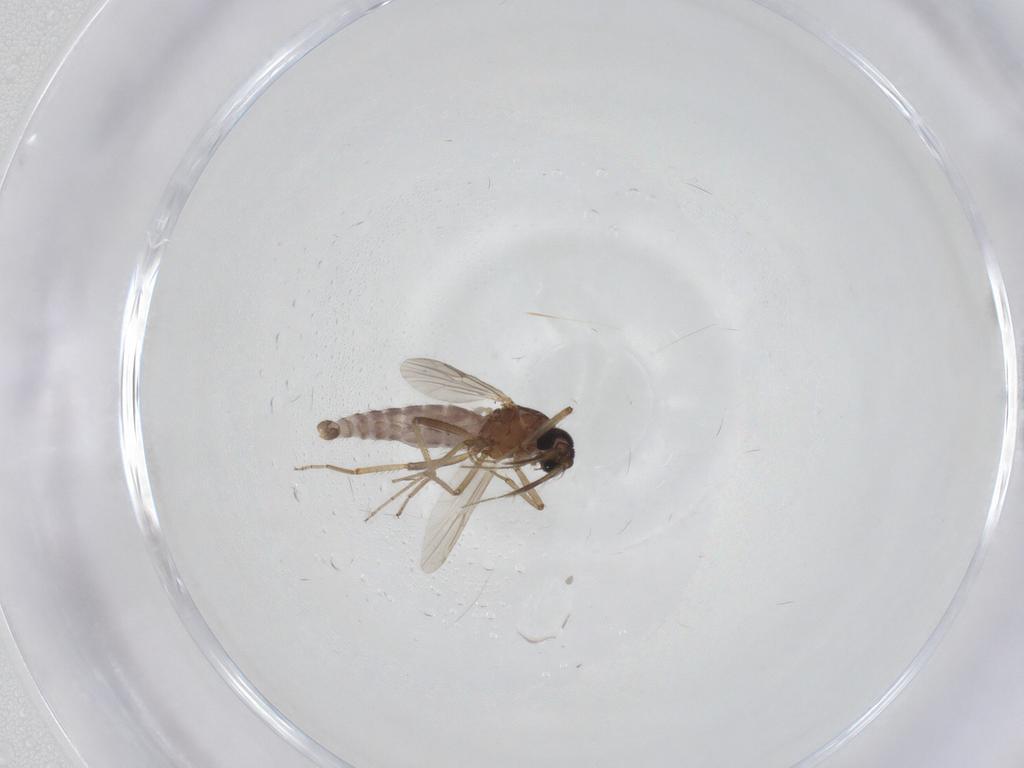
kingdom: Animalia
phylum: Arthropoda
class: Insecta
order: Diptera
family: Ceratopogonidae
